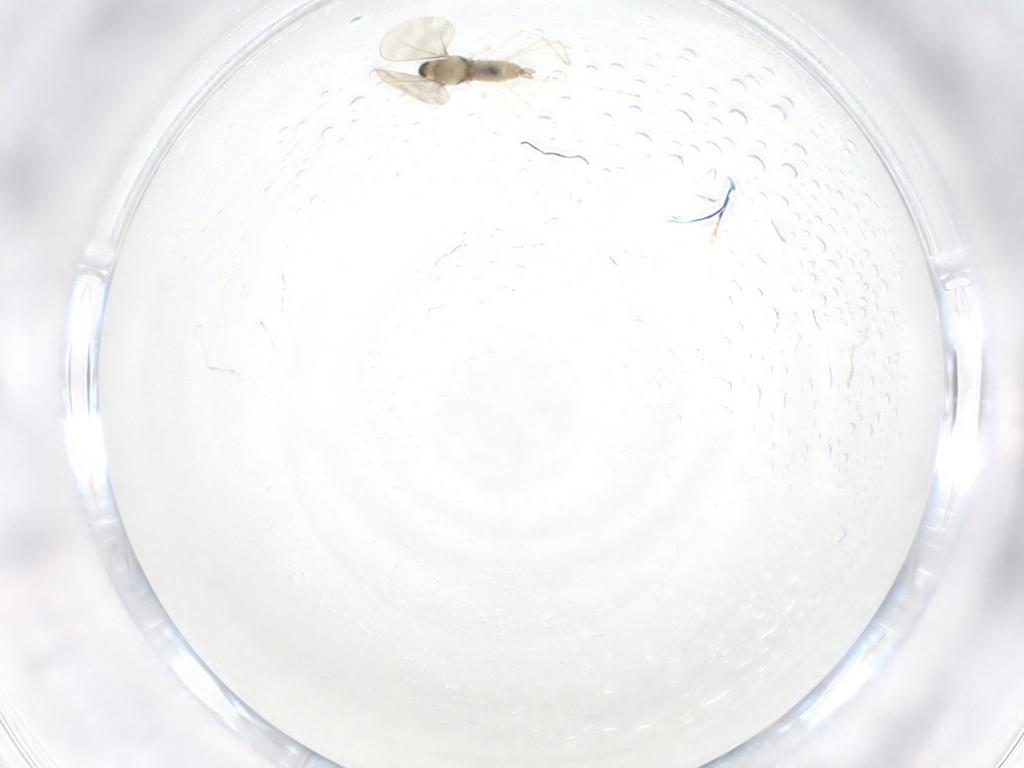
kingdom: Animalia
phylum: Arthropoda
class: Insecta
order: Diptera
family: Cecidomyiidae
